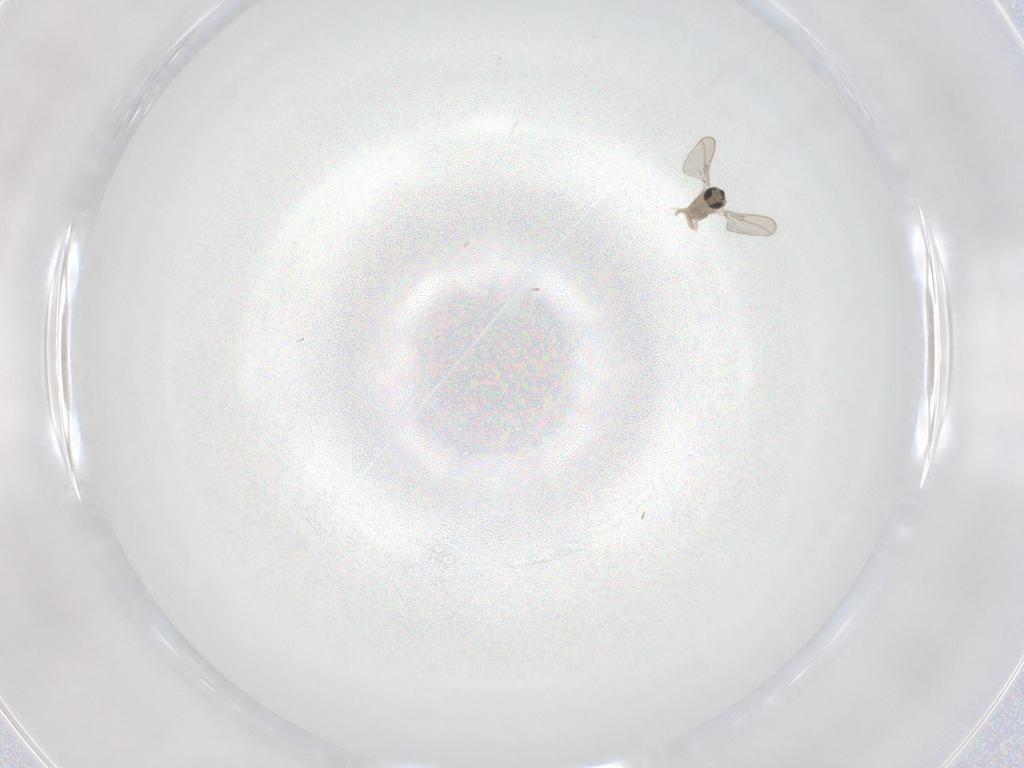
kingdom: Animalia
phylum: Arthropoda
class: Insecta
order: Diptera
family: Cecidomyiidae
